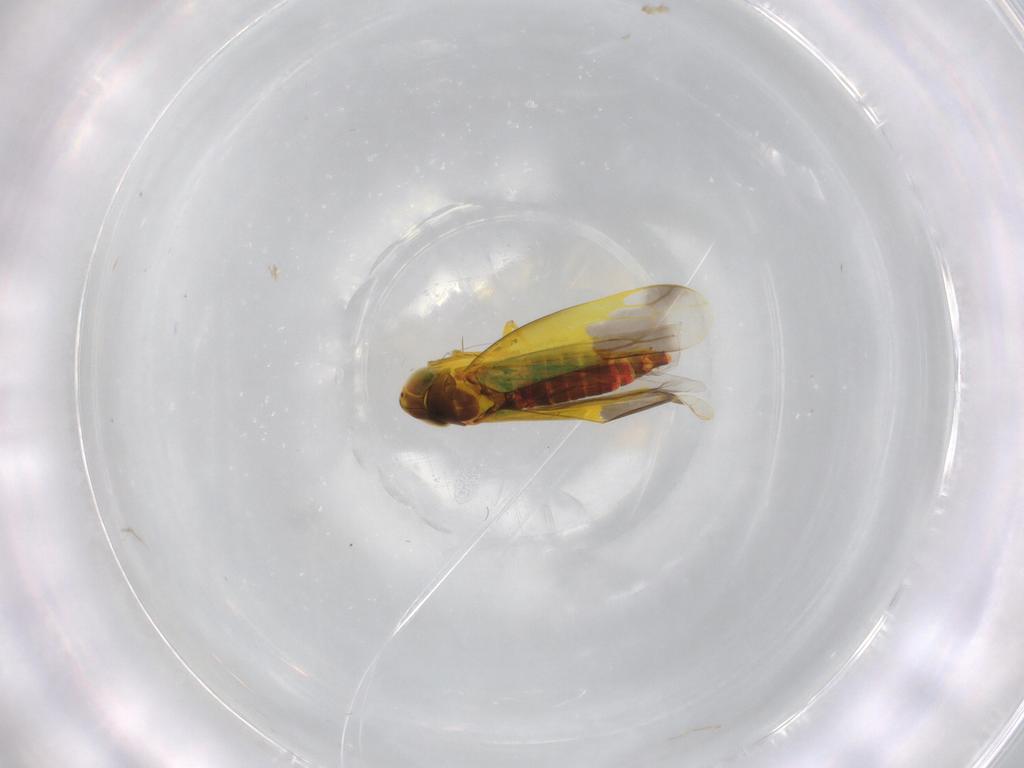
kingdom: Animalia
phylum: Arthropoda
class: Insecta
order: Hemiptera
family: Cicadellidae
